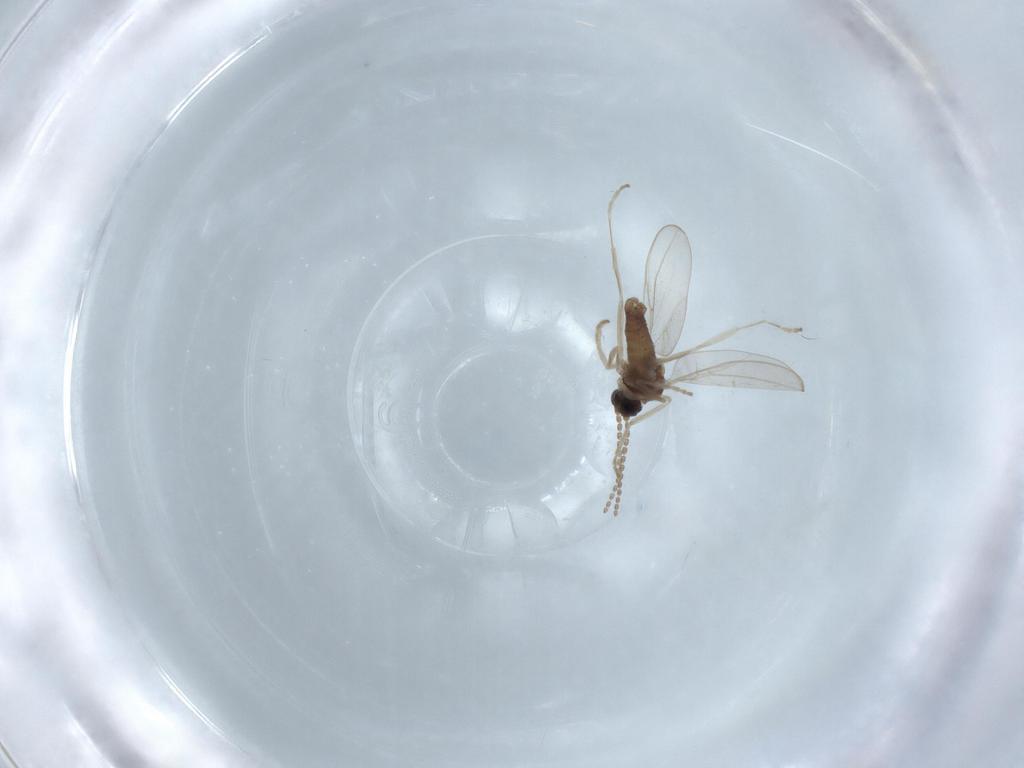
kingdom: Animalia
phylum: Arthropoda
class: Insecta
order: Diptera
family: Cecidomyiidae
